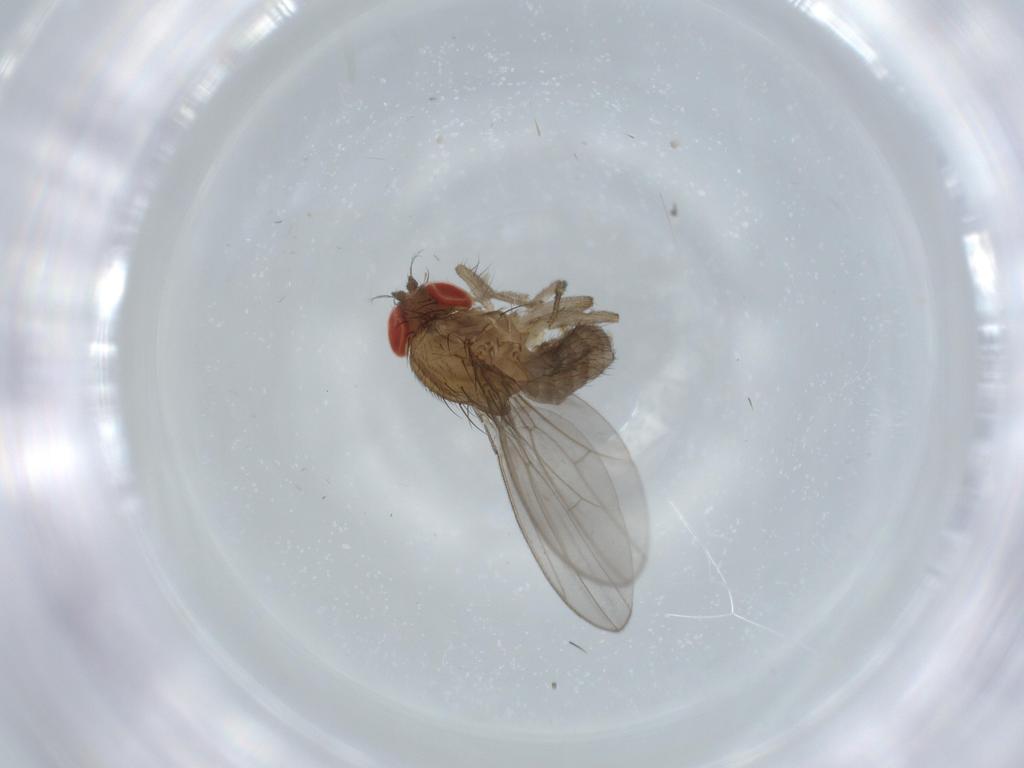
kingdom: Animalia
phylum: Arthropoda
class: Insecta
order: Diptera
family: Drosophilidae
